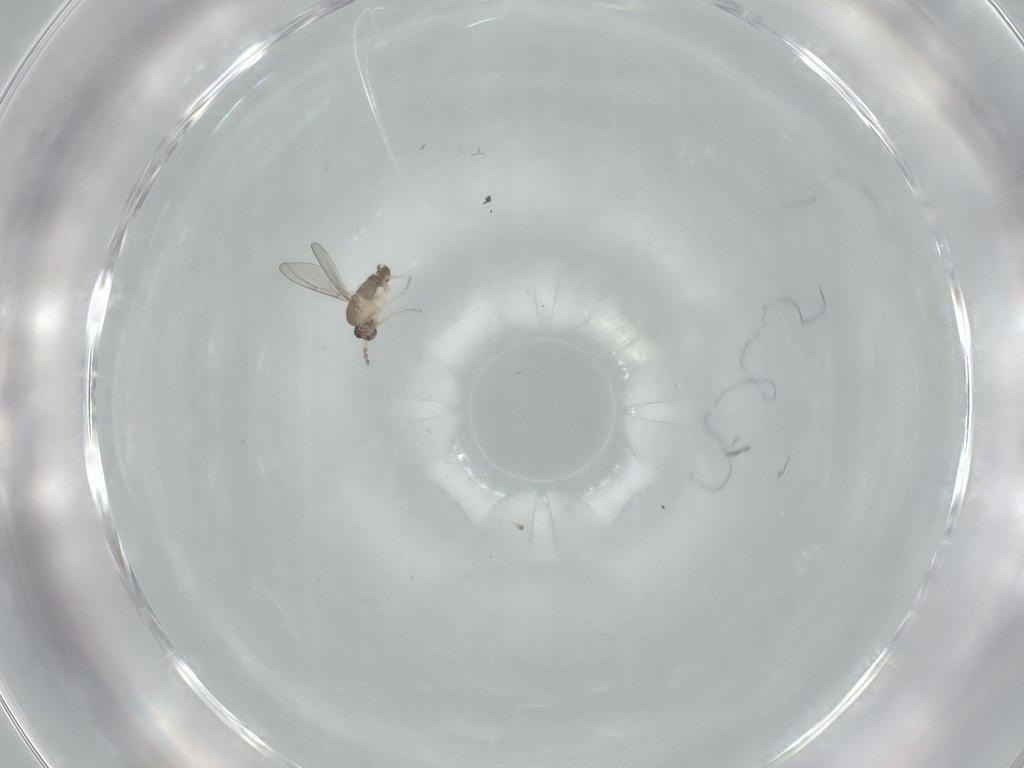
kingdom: Animalia
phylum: Arthropoda
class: Insecta
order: Diptera
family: Cecidomyiidae
